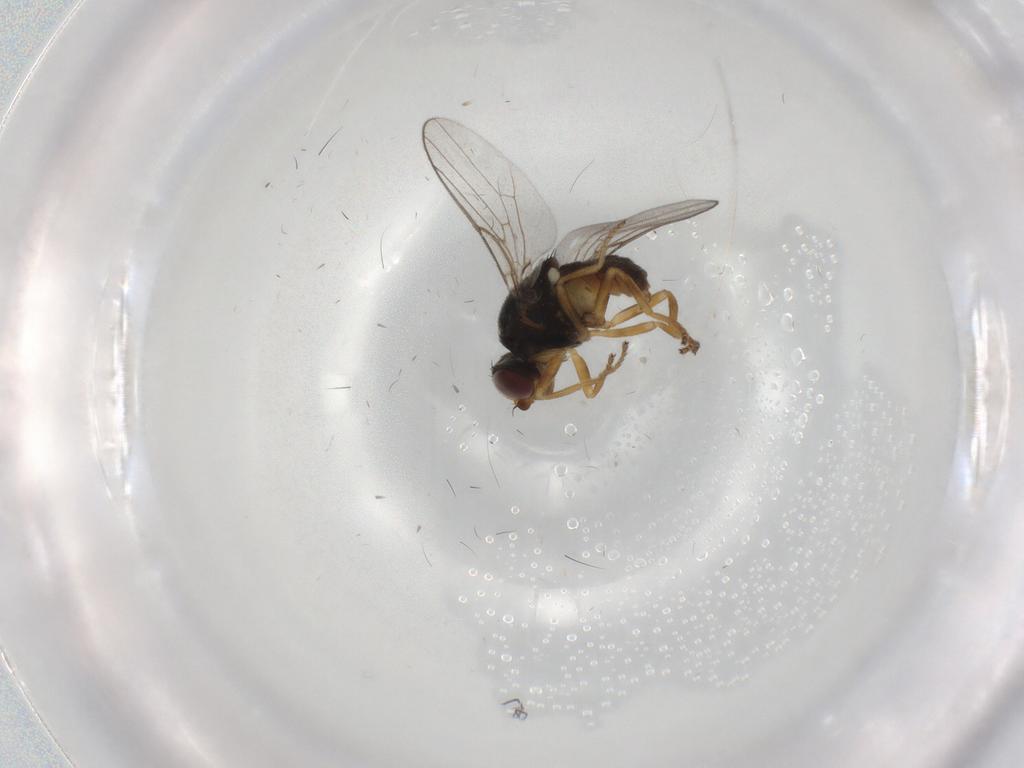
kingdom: Animalia
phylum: Arthropoda
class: Insecta
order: Diptera
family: Chloropidae
